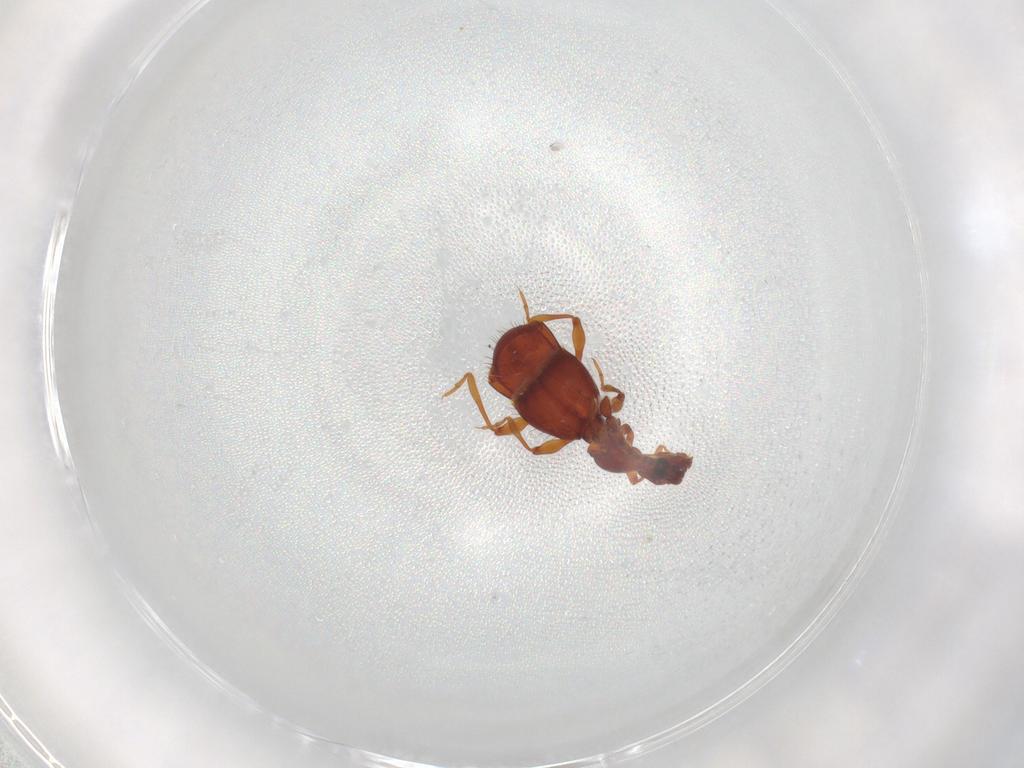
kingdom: Animalia
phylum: Arthropoda
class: Insecta
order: Coleoptera
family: Staphylinidae
